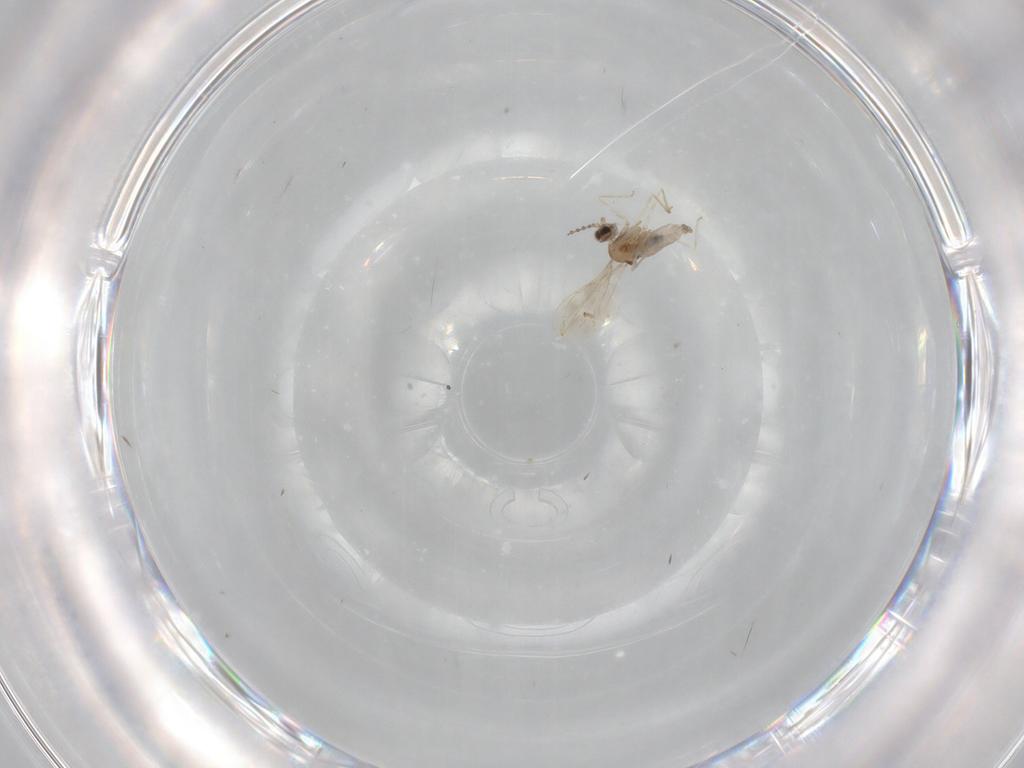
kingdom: Animalia
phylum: Arthropoda
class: Insecta
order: Diptera
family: Cecidomyiidae
